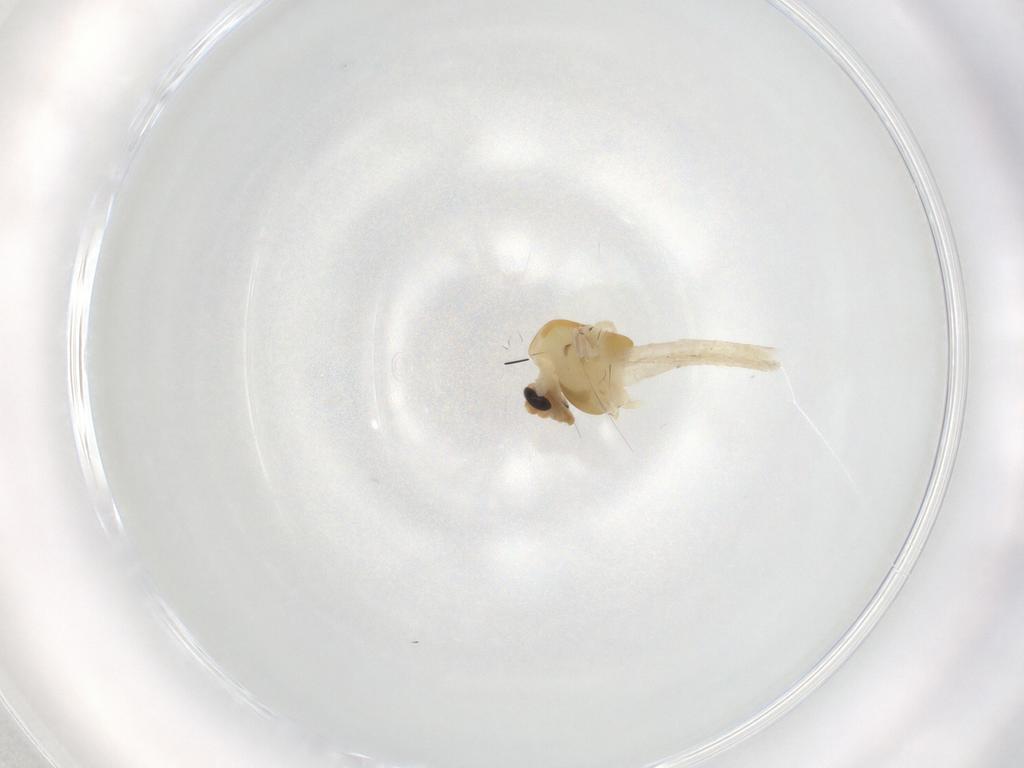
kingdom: Animalia
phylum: Arthropoda
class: Insecta
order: Diptera
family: Chironomidae
